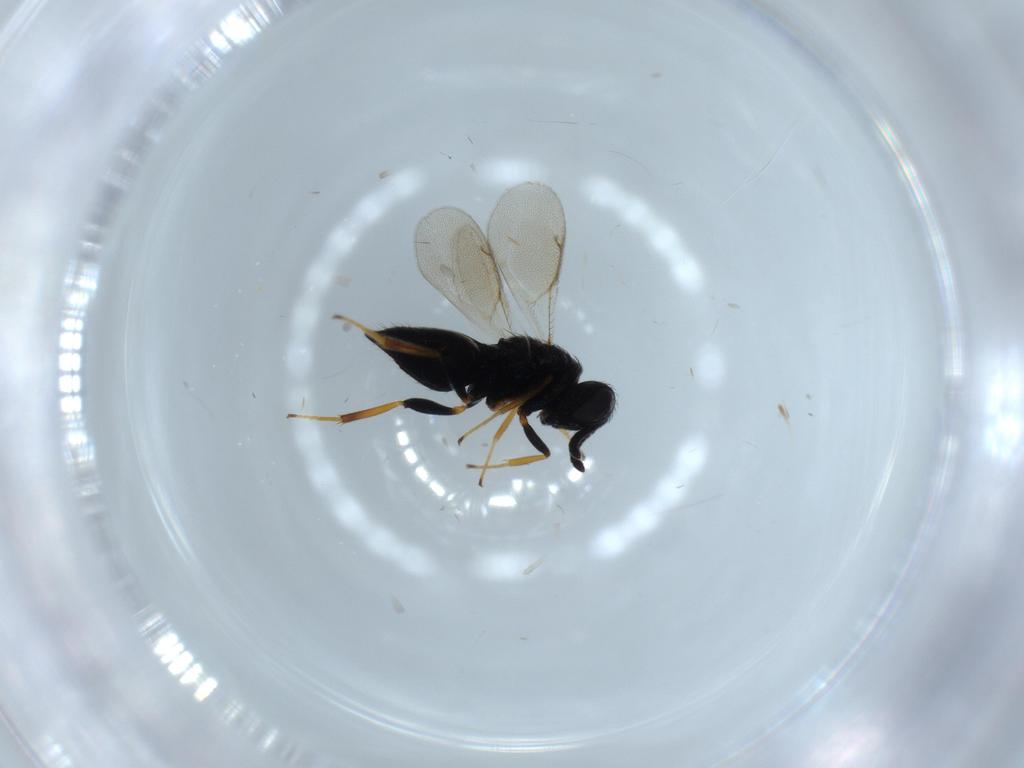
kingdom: Animalia
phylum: Arthropoda
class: Insecta
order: Hymenoptera
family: Pteromalidae
